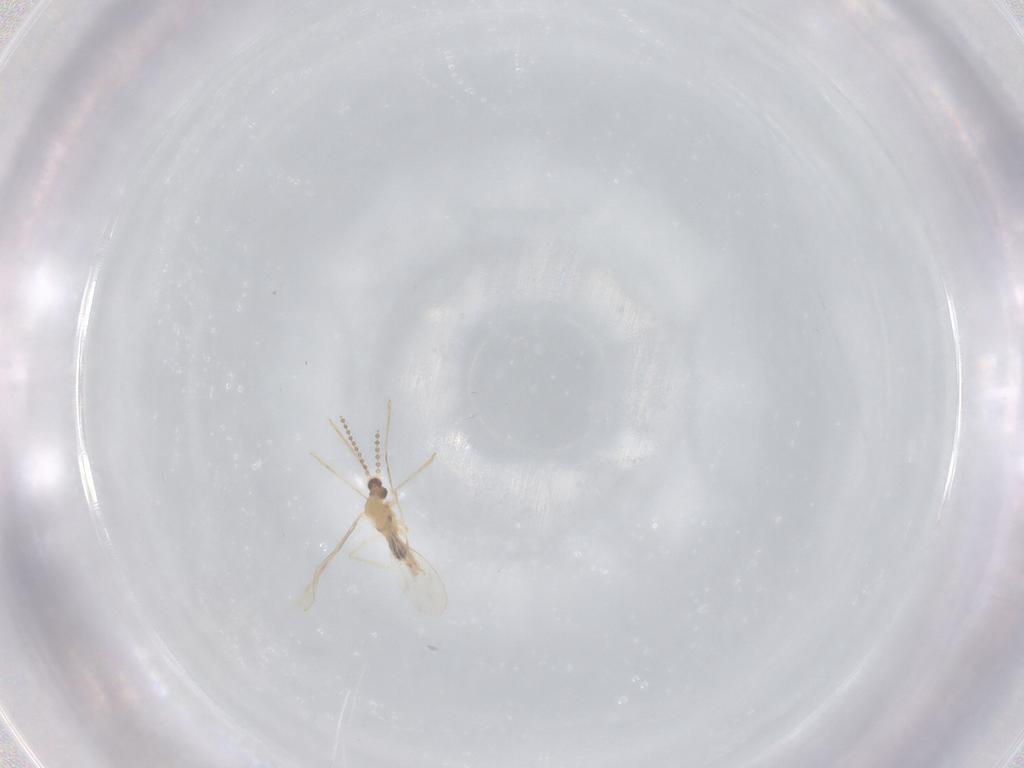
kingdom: Animalia
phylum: Arthropoda
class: Insecta
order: Diptera
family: Cecidomyiidae
